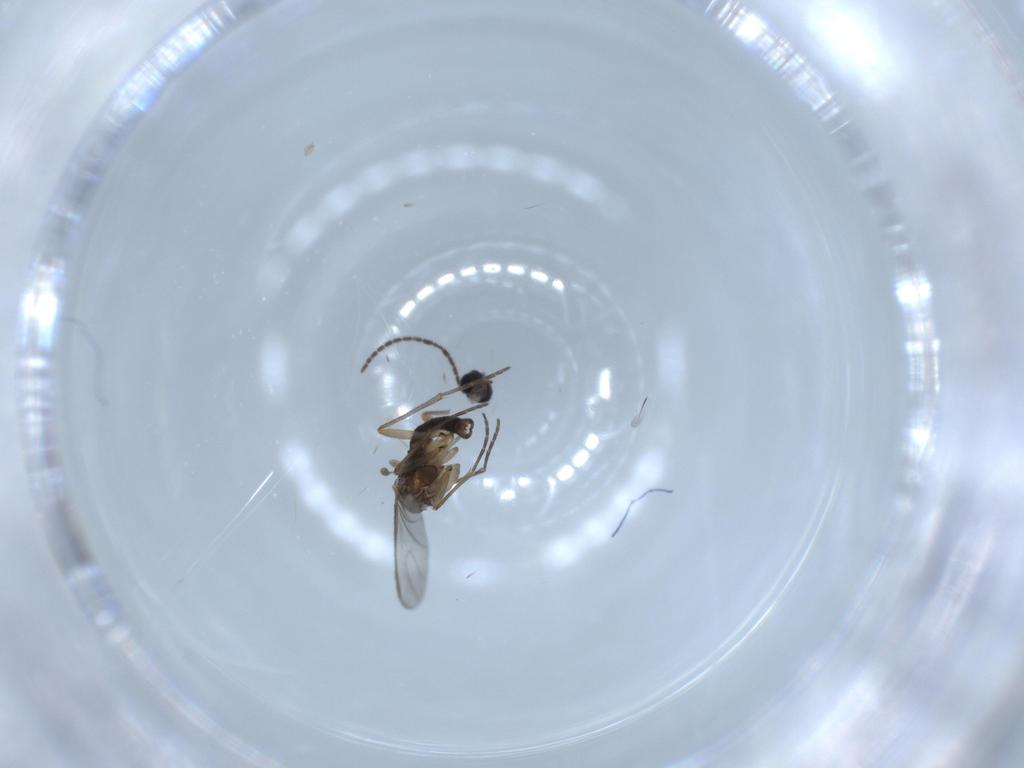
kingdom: Animalia
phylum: Arthropoda
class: Insecta
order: Diptera
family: Sciaridae
